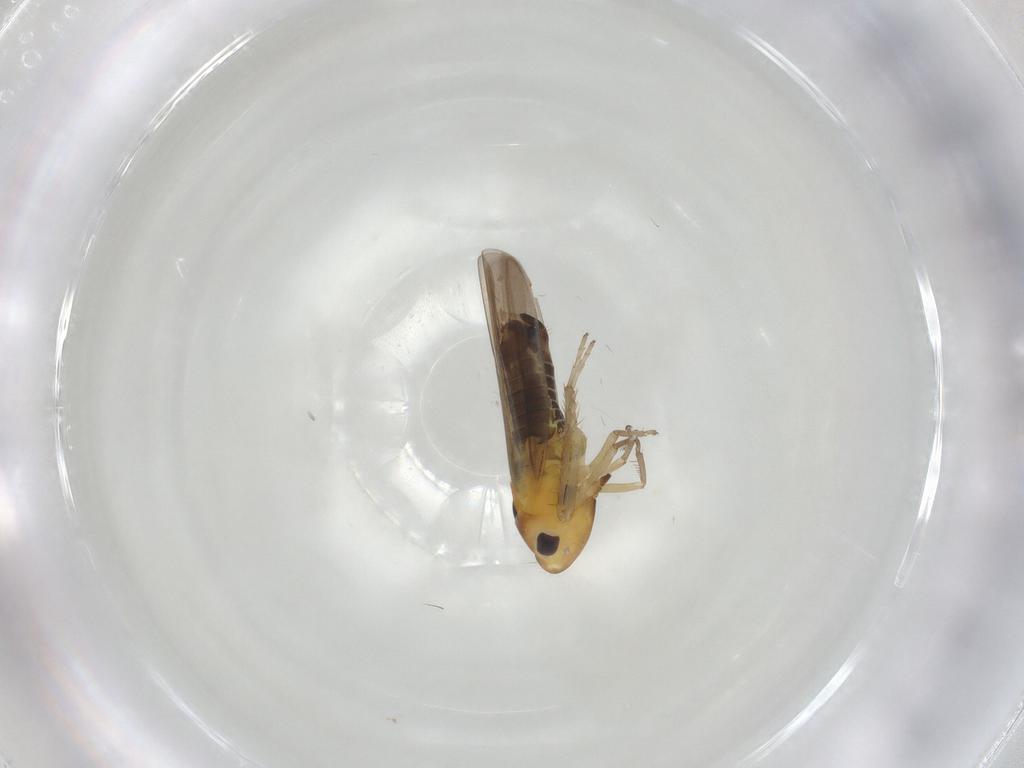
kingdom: Animalia
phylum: Arthropoda
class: Insecta
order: Hemiptera
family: Cicadellidae
